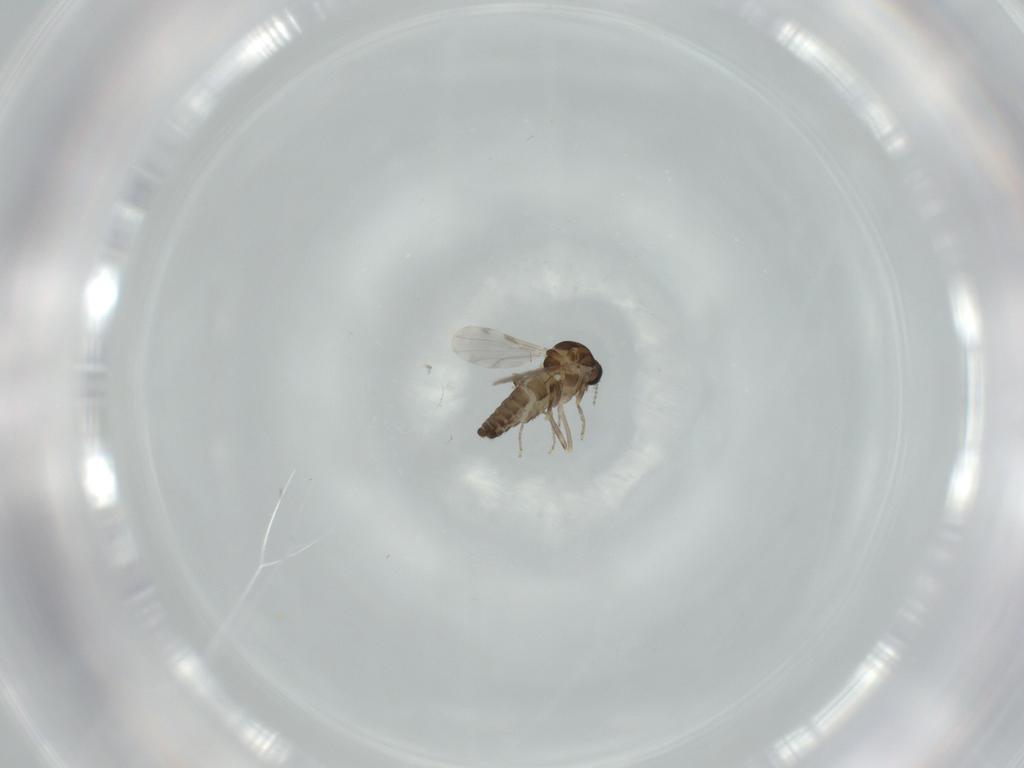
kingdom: Animalia
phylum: Arthropoda
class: Insecta
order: Diptera
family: Ceratopogonidae
